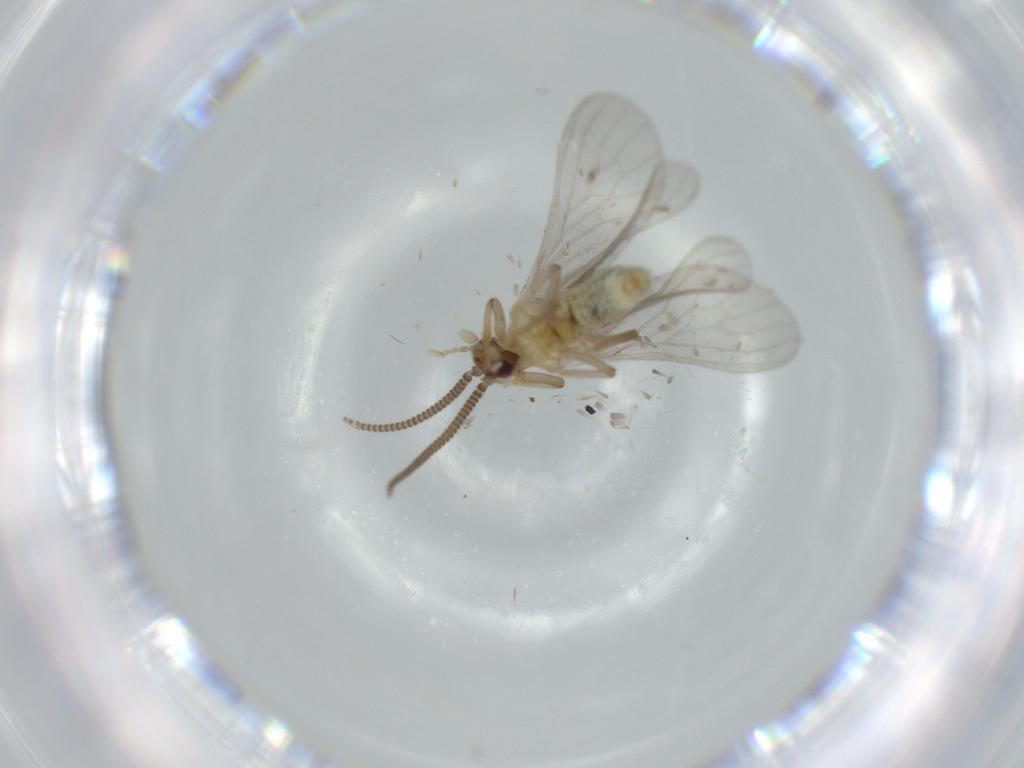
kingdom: Animalia
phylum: Arthropoda
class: Insecta
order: Neuroptera
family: Coniopterygidae
